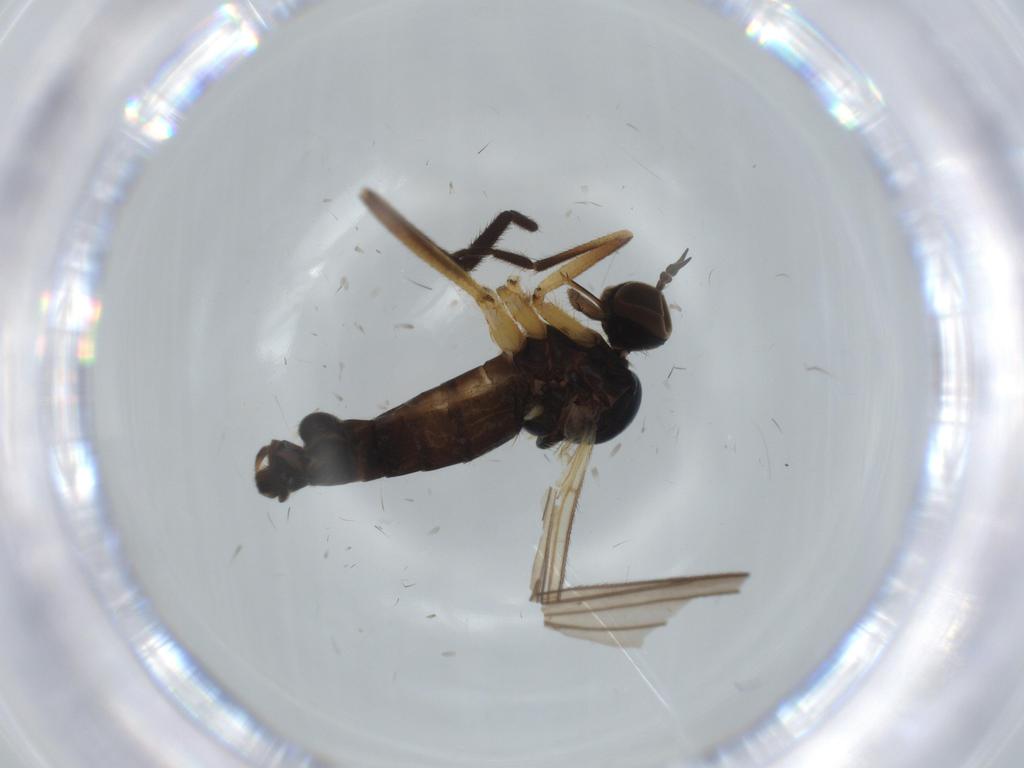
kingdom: Animalia
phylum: Arthropoda
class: Insecta
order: Diptera
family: Empididae
